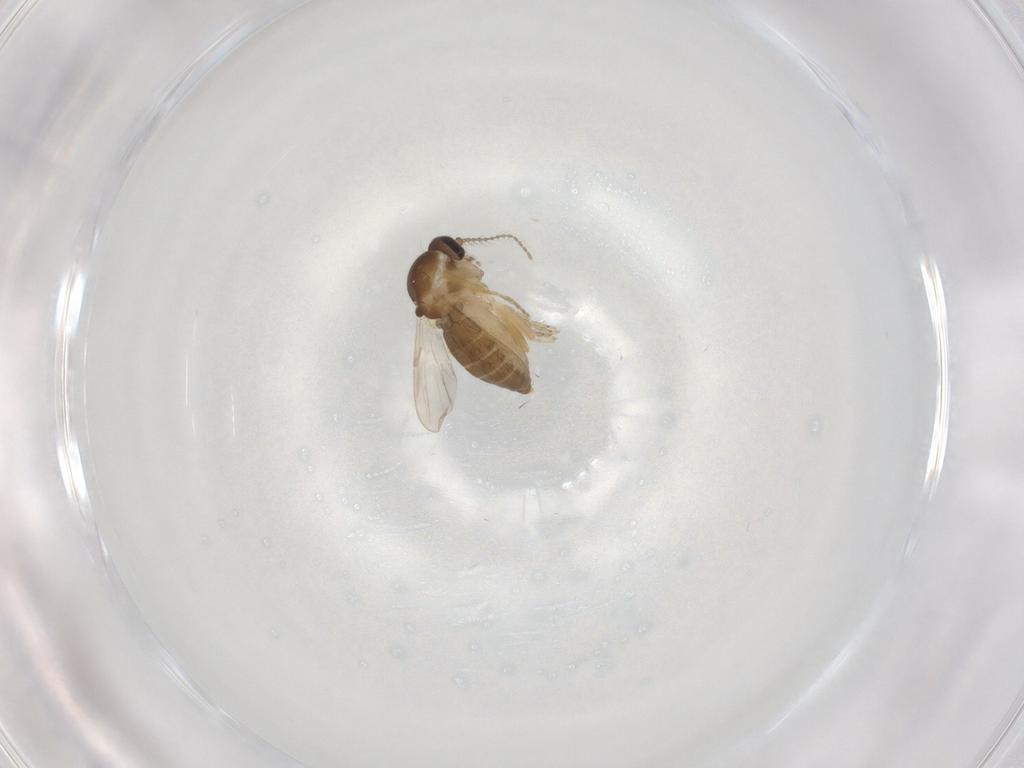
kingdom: Animalia
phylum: Arthropoda
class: Insecta
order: Diptera
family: Ceratopogonidae
